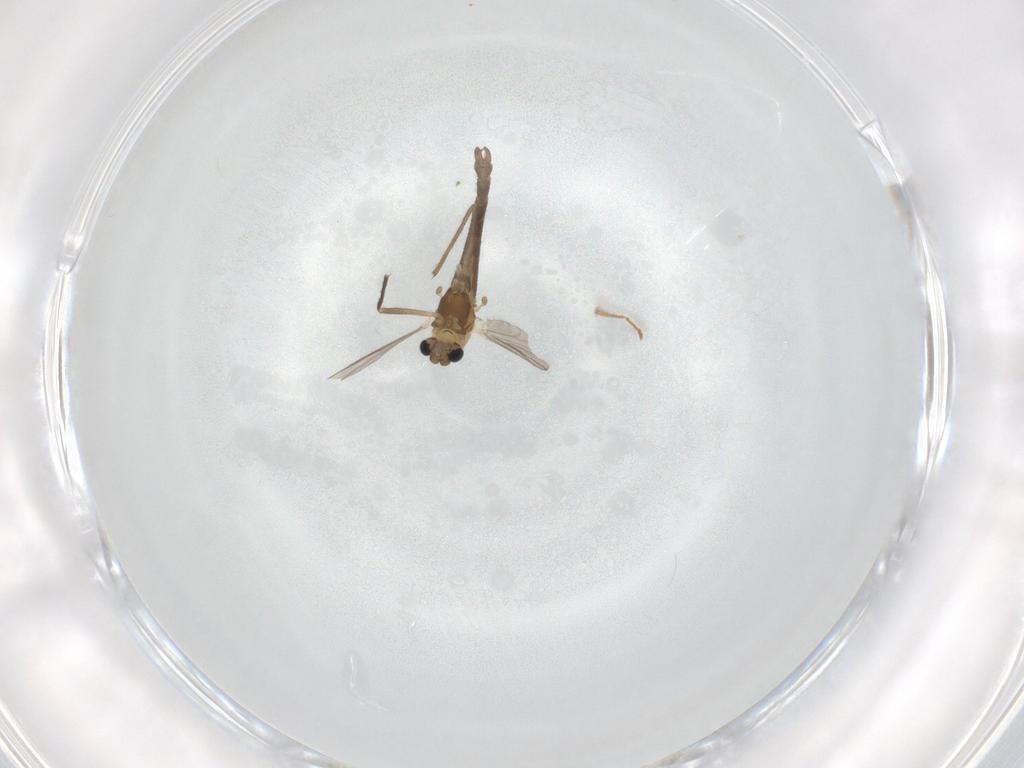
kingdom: Animalia
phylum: Arthropoda
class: Insecta
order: Diptera
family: Chironomidae
